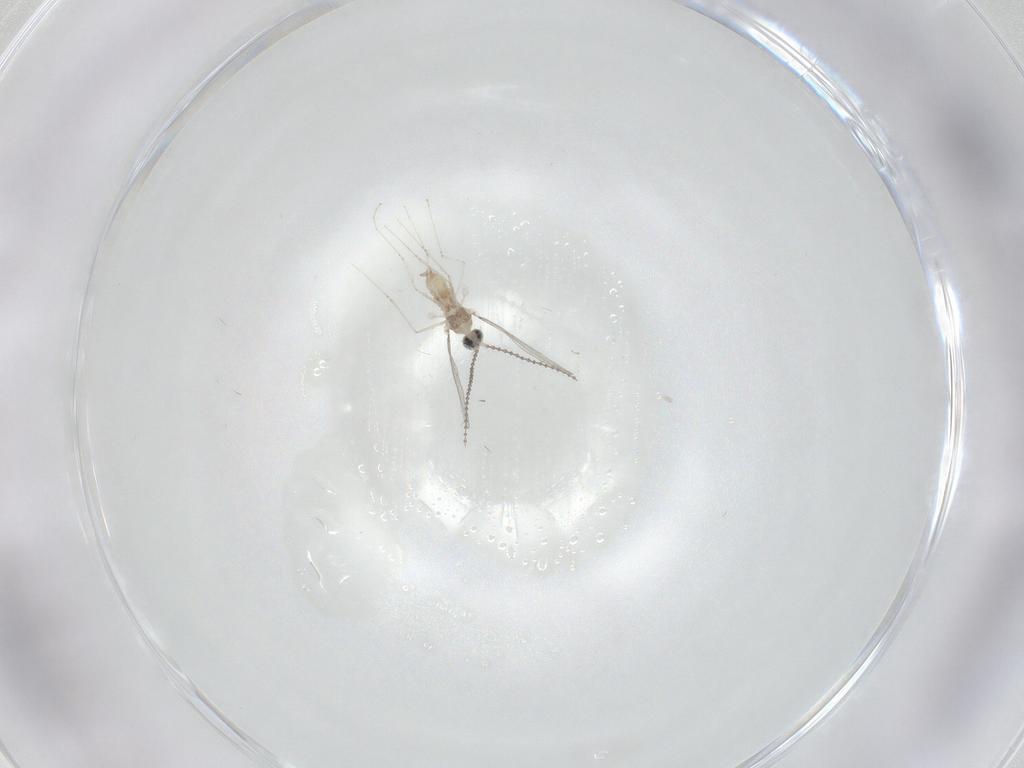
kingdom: Animalia
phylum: Arthropoda
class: Insecta
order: Diptera
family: Cecidomyiidae
